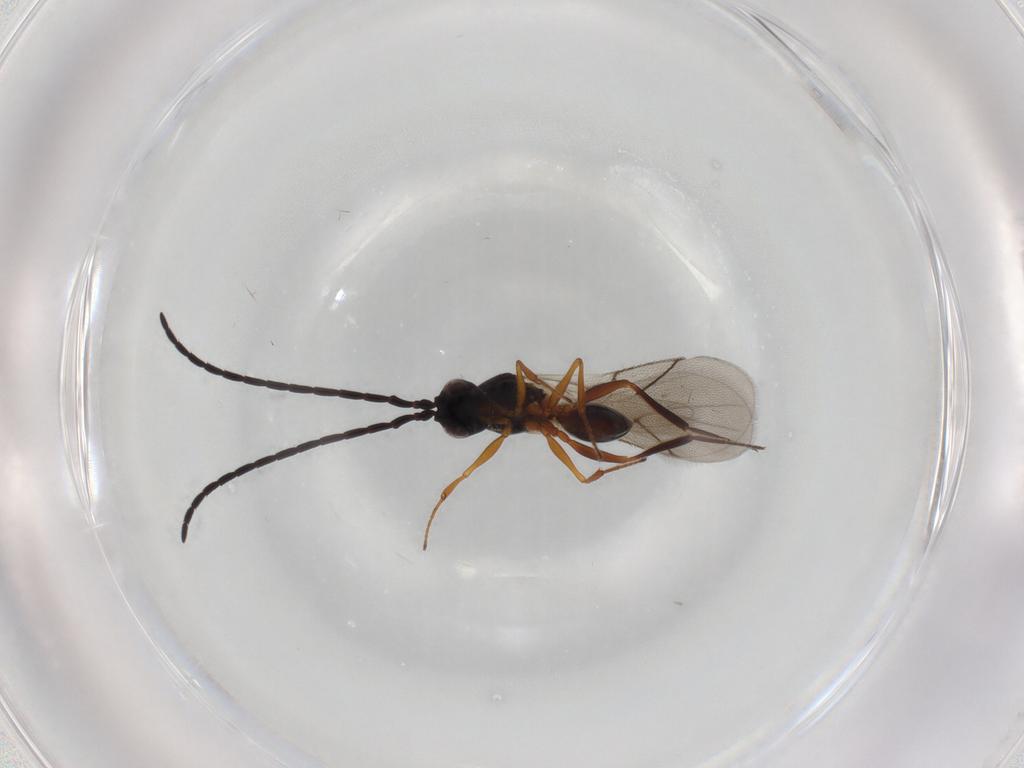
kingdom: Animalia
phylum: Arthropoda
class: Insecta
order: Hymenoptera
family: Figitidae
